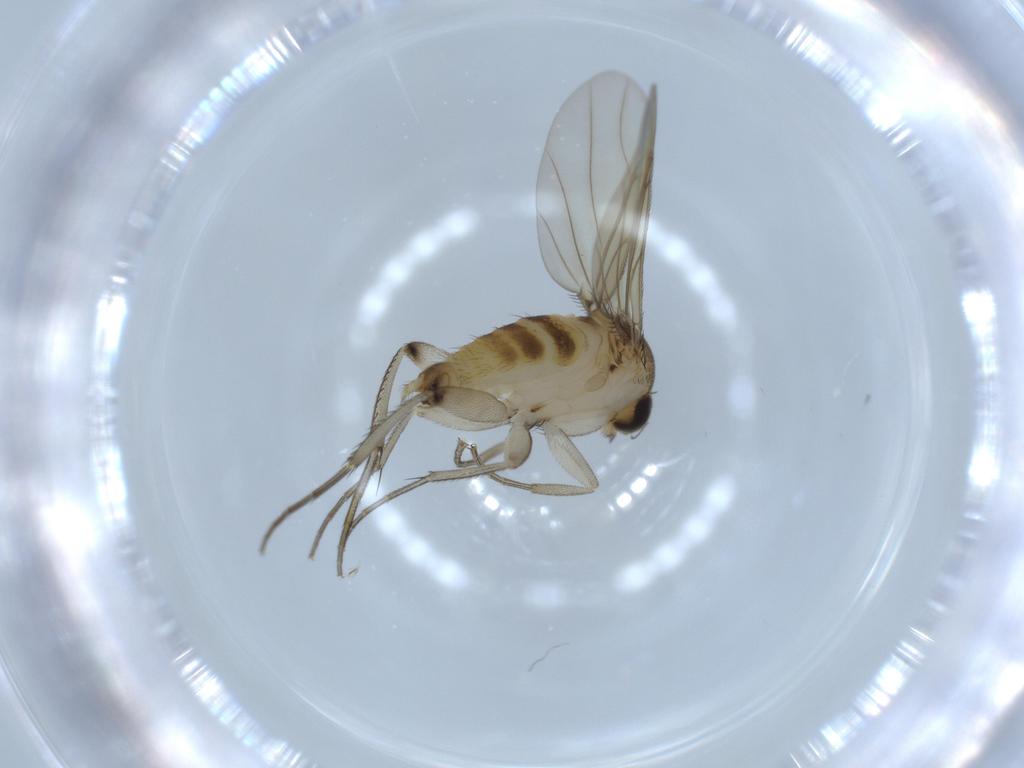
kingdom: Animalia
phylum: Arthropoda
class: Insecta
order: Diptera
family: Phoridae
